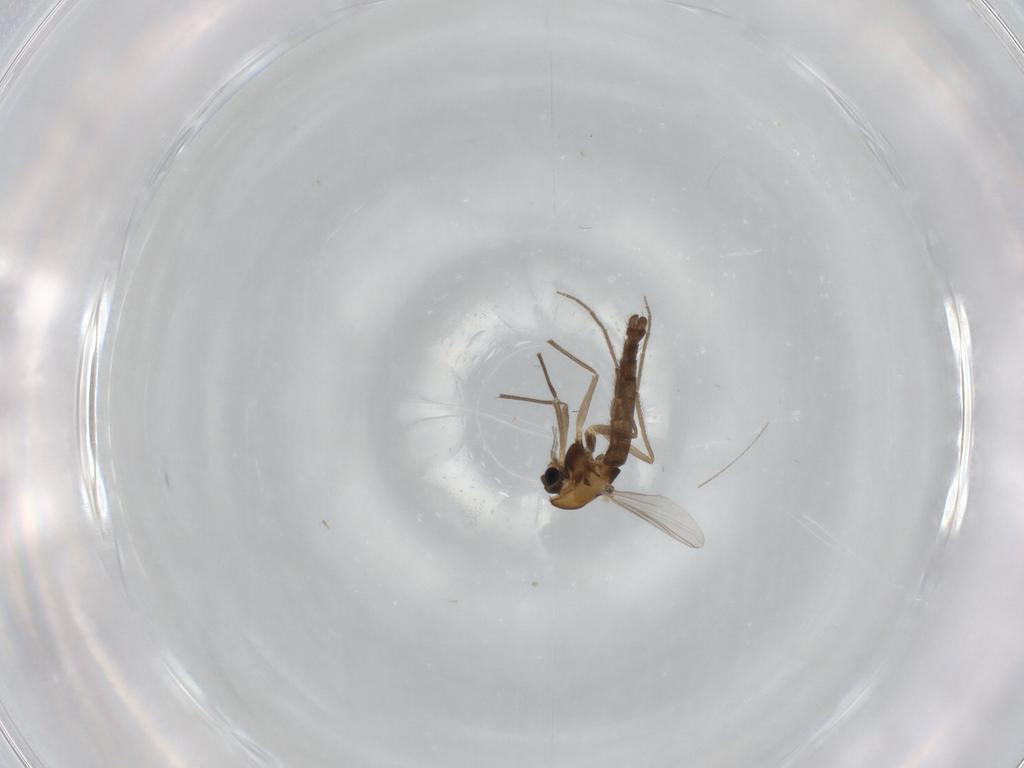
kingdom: Animalia
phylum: Arthropoda
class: Insecta
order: Diptera
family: Chironomidae
